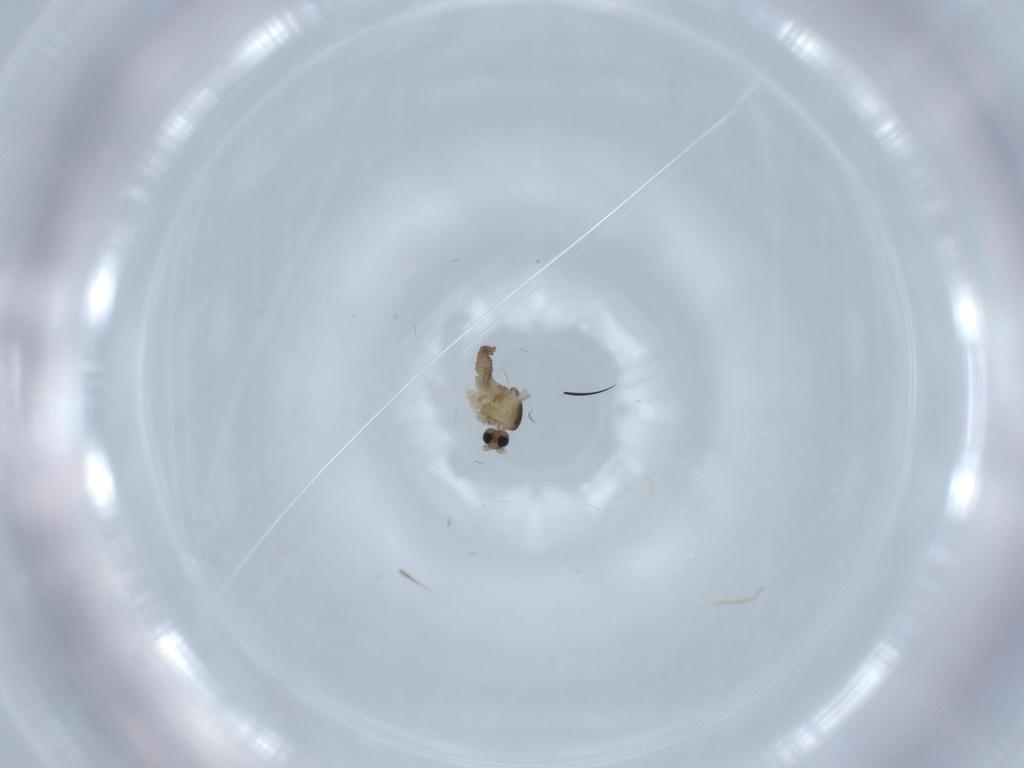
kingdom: Animalia
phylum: Arthropoda
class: Insecta
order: Diptera
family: Cecidomyiidae
